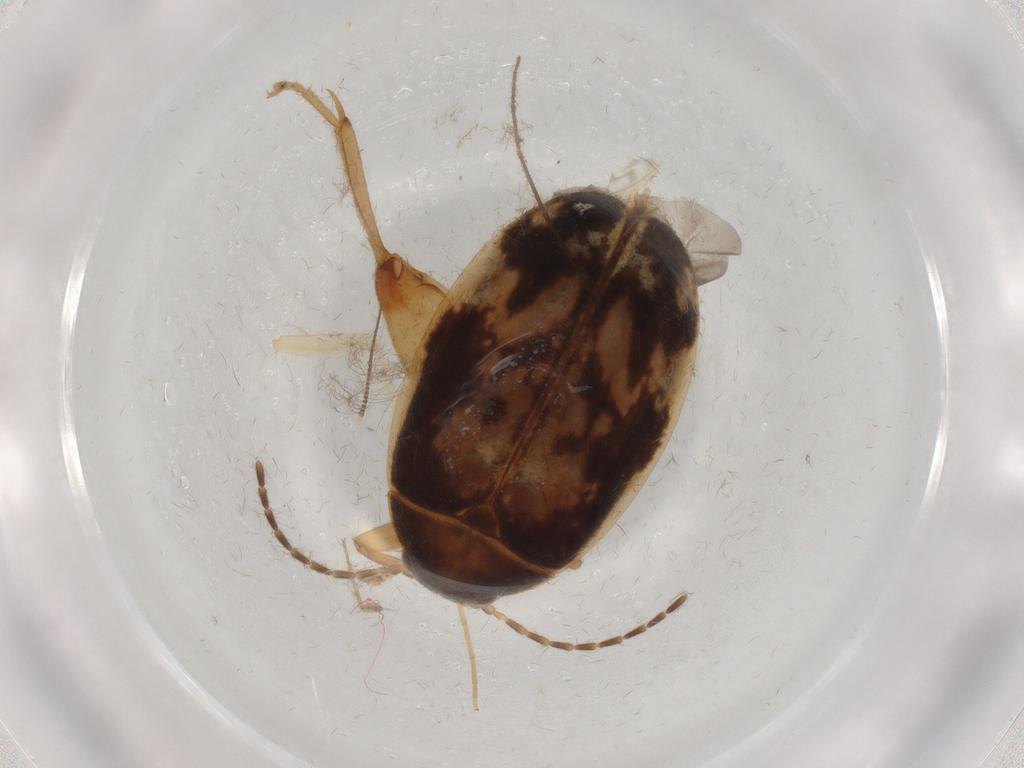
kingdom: Animalia
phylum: Arthropoda
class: Insecta
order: Coleoptera
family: Scirtidae
